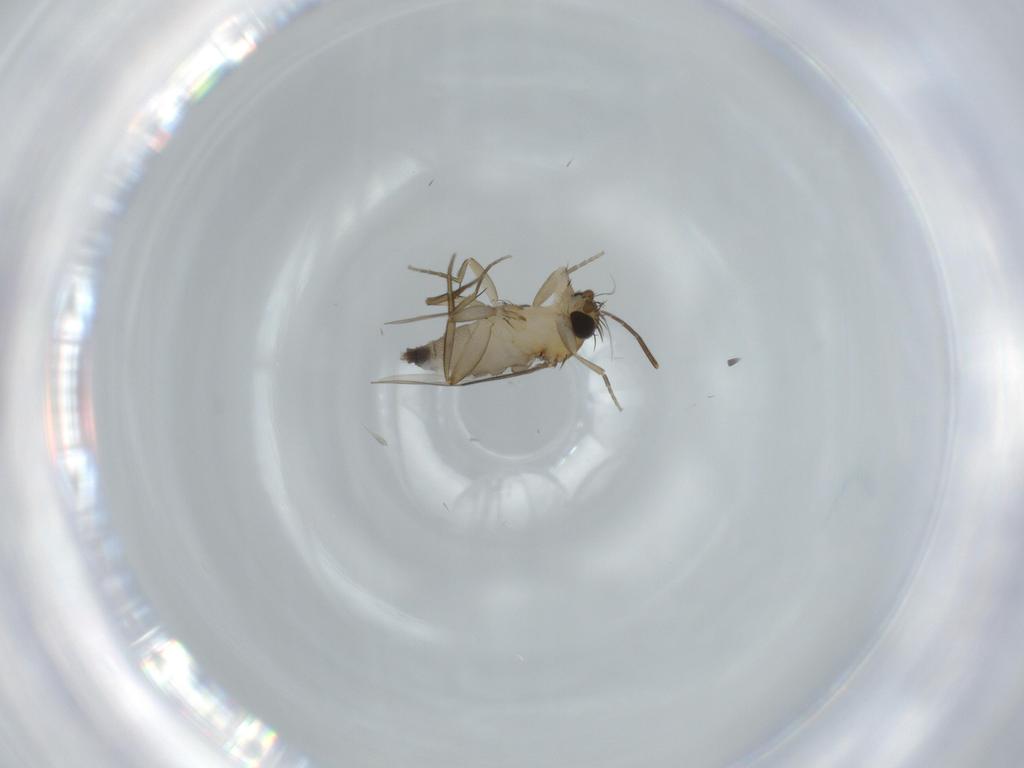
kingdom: Animalia
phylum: Arthropoda
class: Insecta
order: Diptera
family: Phoridae
